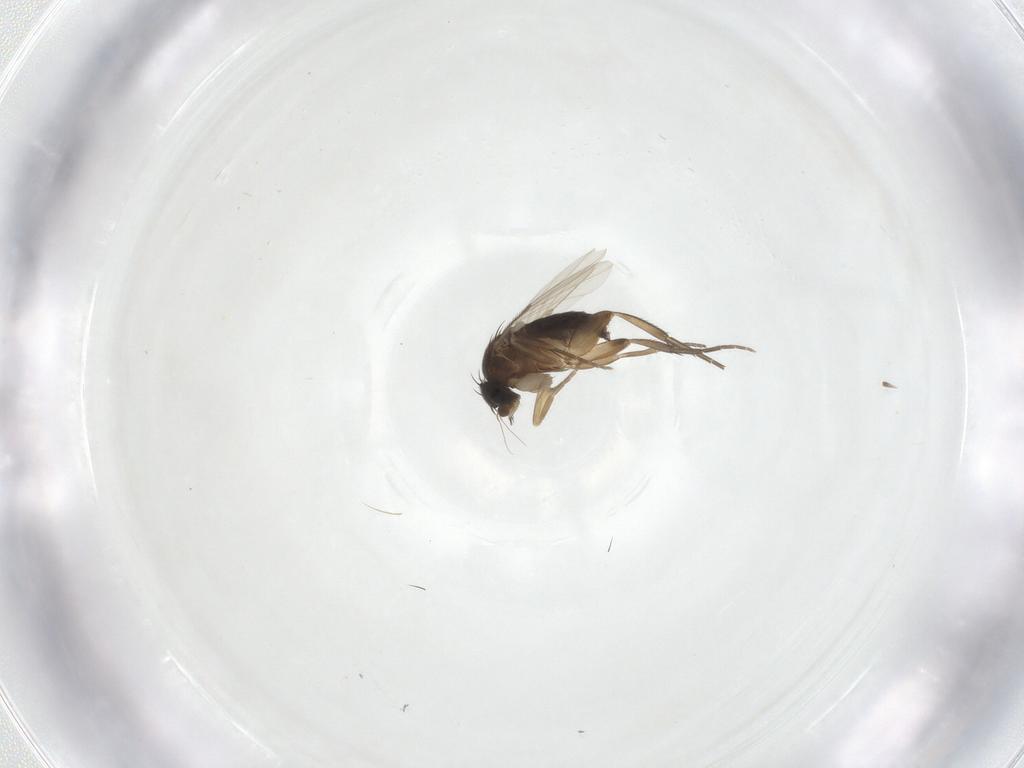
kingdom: Animalia
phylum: Arthropoda
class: Insecta
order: Diptera
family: Phoridae
